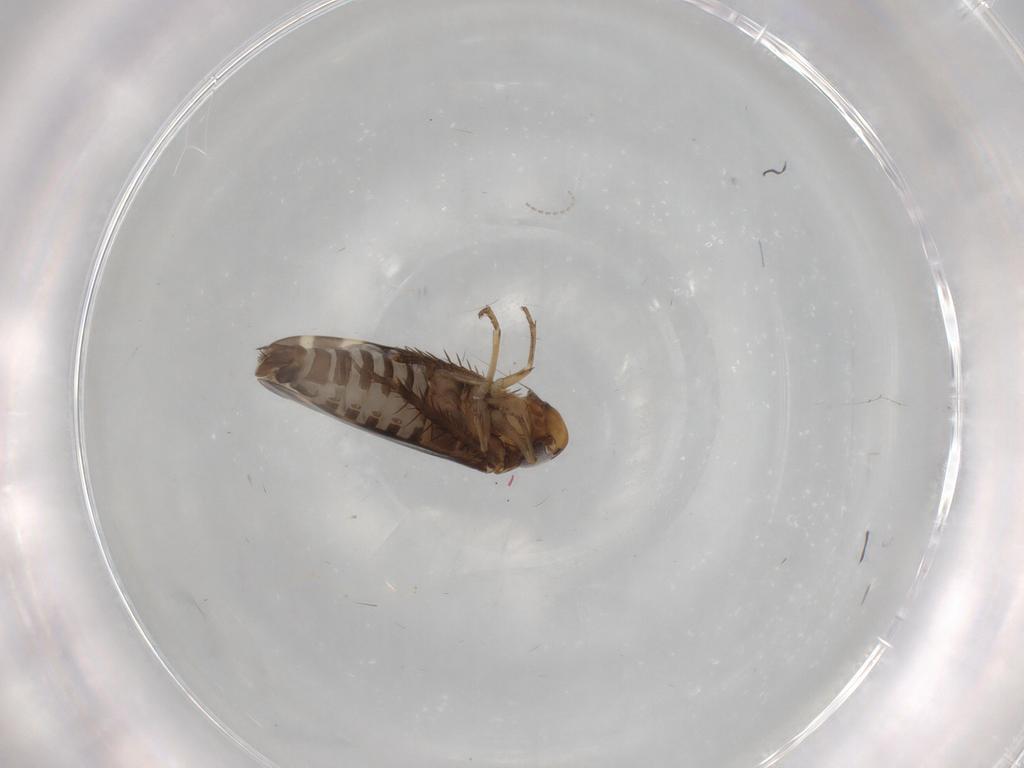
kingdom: Animalia
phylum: Arthropoda
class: Insecta
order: Hemiptera
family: Cicadellidae
